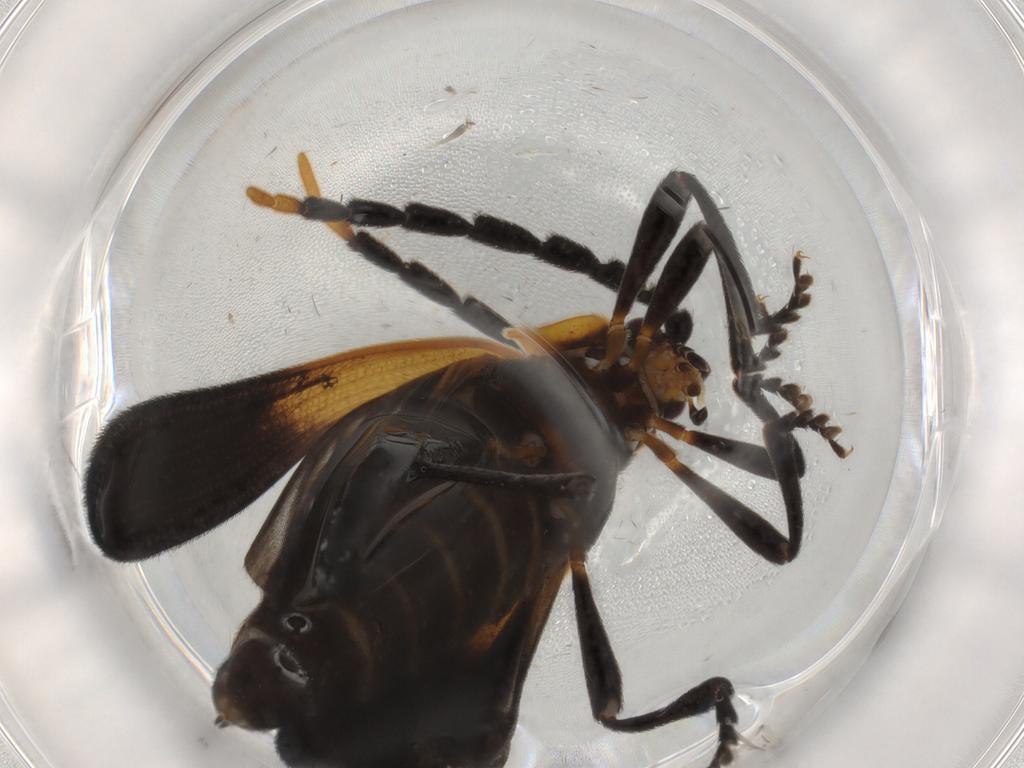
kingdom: Animalia
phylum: Arthropoda
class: Insecta
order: Coleoptera
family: Lycidae
